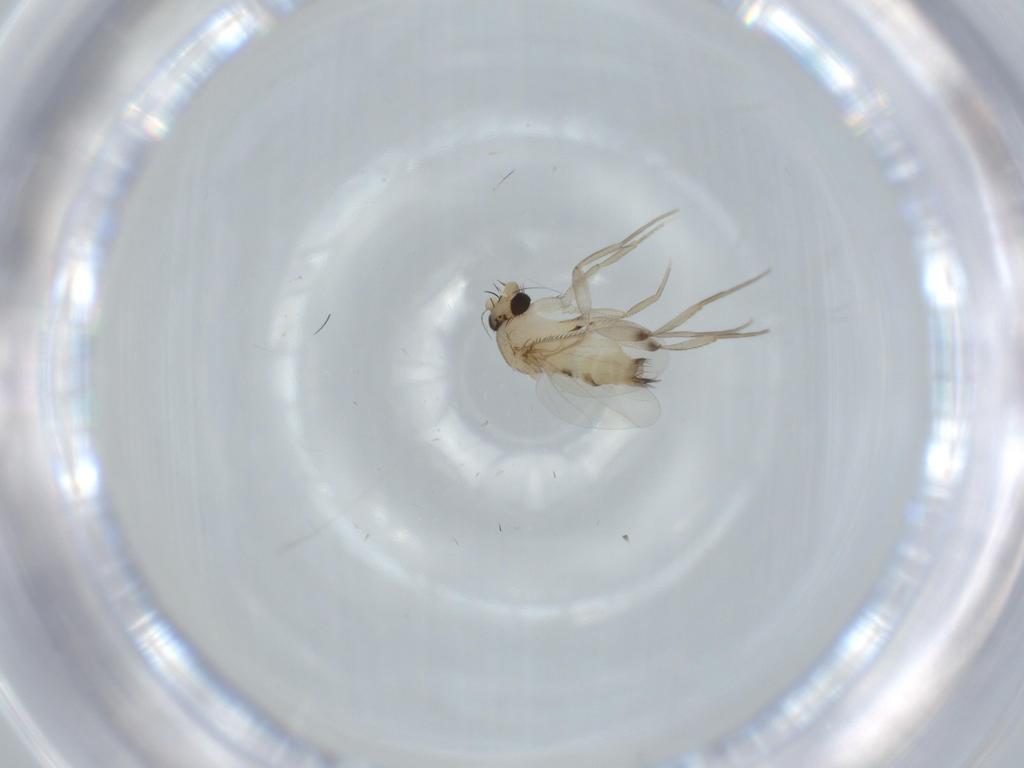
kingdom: Animalia
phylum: Arthropoda
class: Insecta
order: Diptera
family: Phoridae
